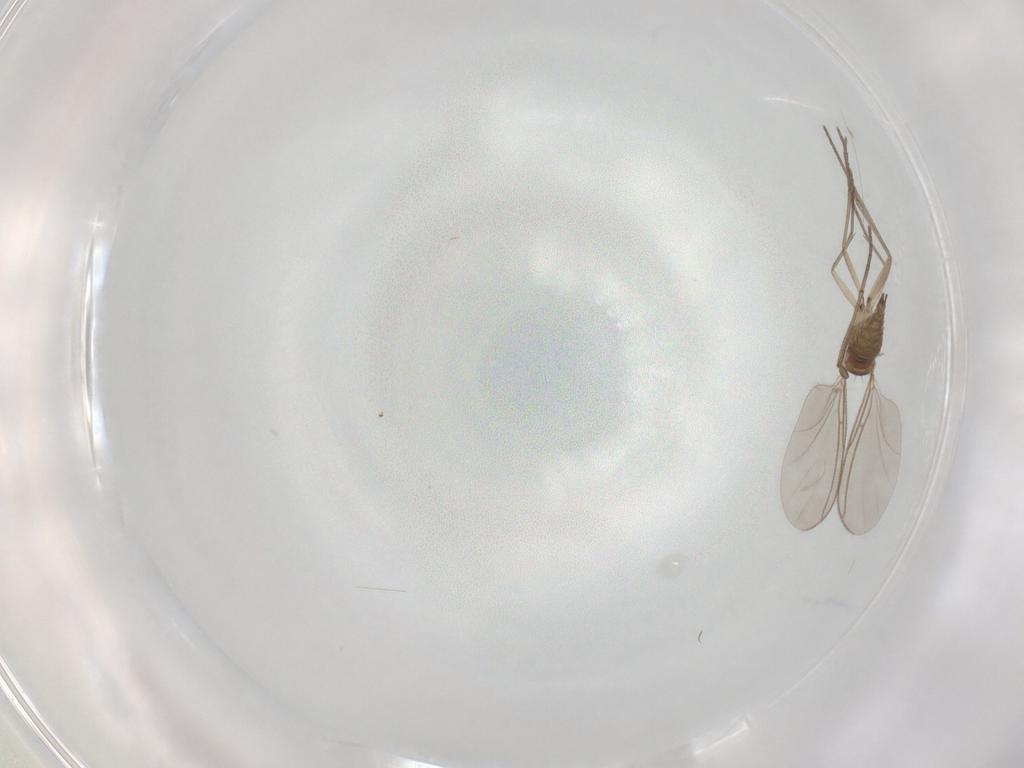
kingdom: Animalia
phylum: Arthropoda
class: Insecta
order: Diptera
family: Sciaridae
